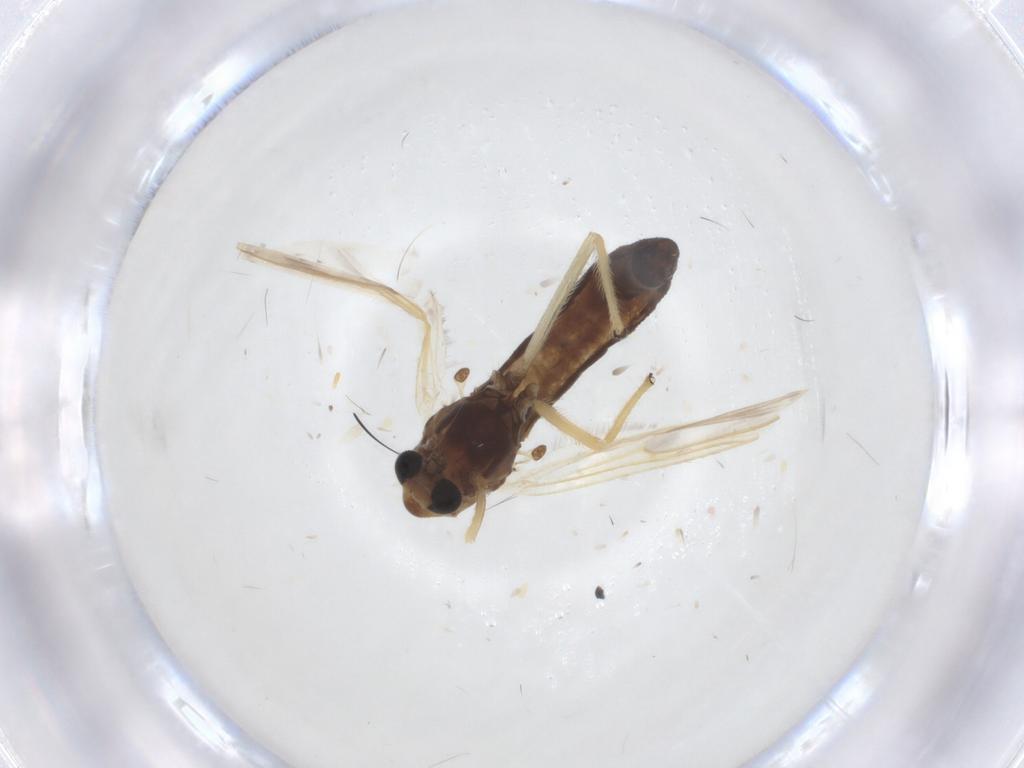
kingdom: Animalia
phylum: Arthropoda
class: Insecta
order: Diptera
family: Chironomidae
